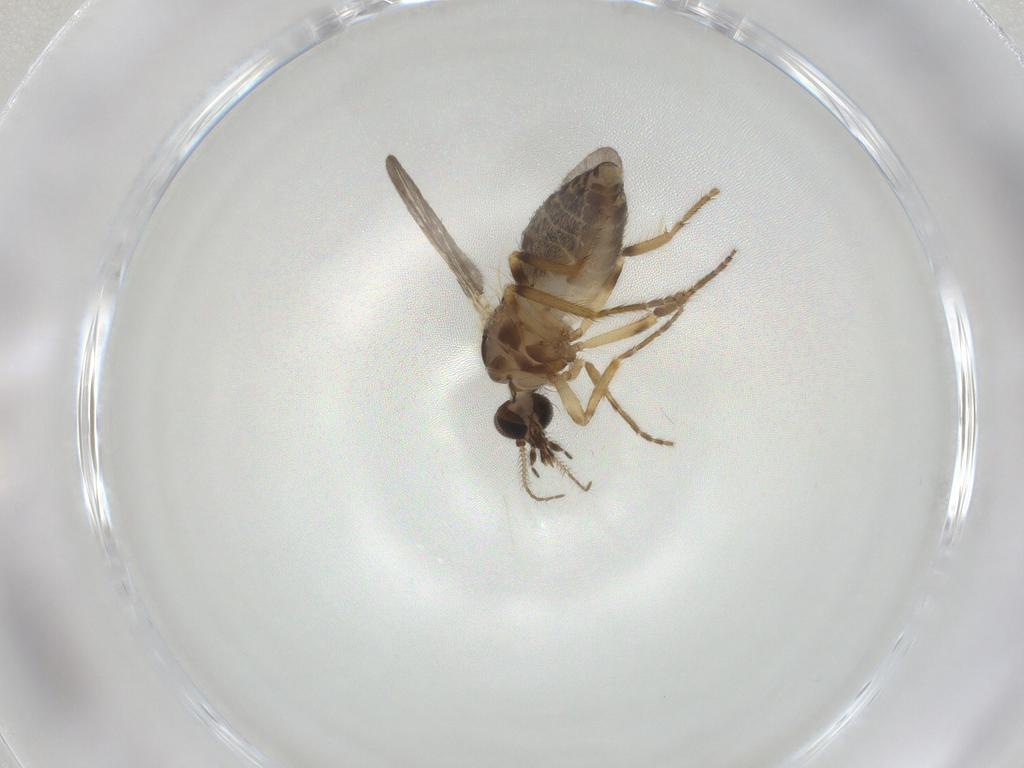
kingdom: Animalia
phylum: Arthropoda
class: Insecta
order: Diptera
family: Ceratopogonidae
